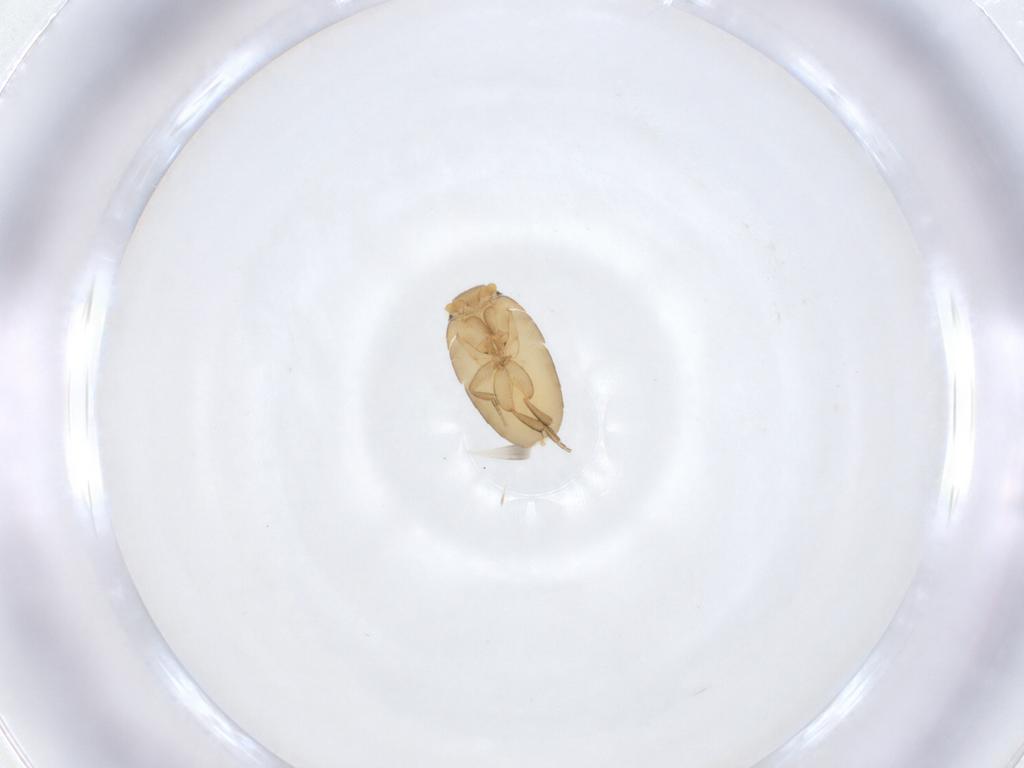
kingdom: Animalia
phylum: Arthropoda
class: Insecta
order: Diptera
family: Phoridae
